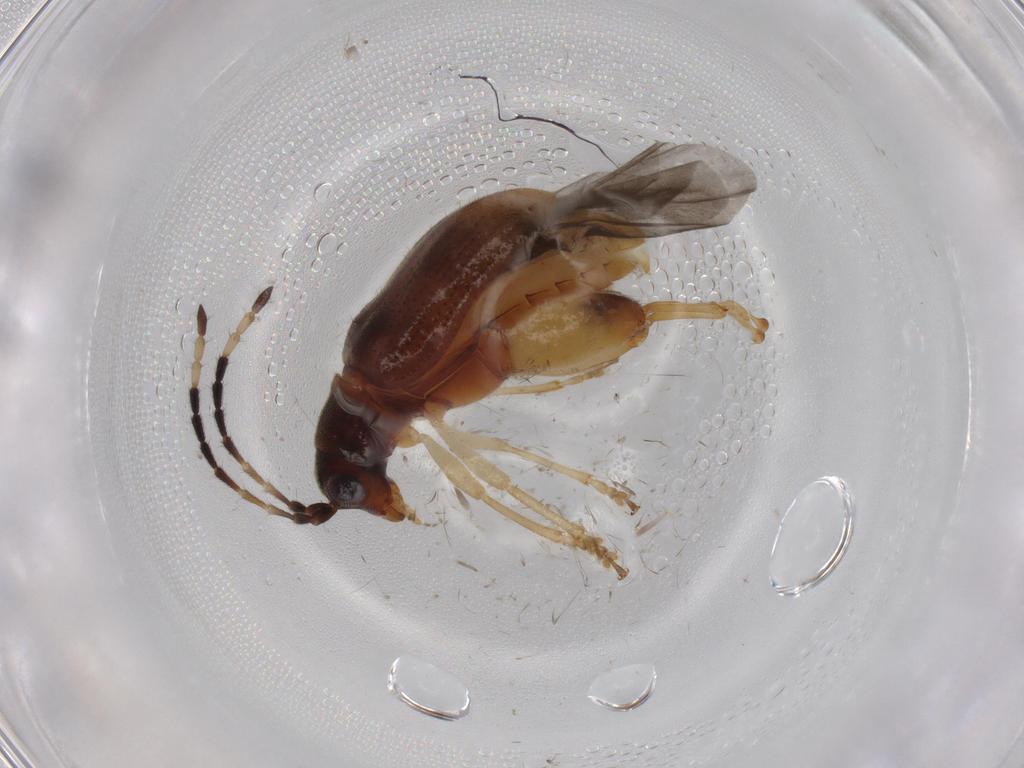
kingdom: Animalia
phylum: Arthropoda
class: Insecta
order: Coleoptera
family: Chrysomelidae
